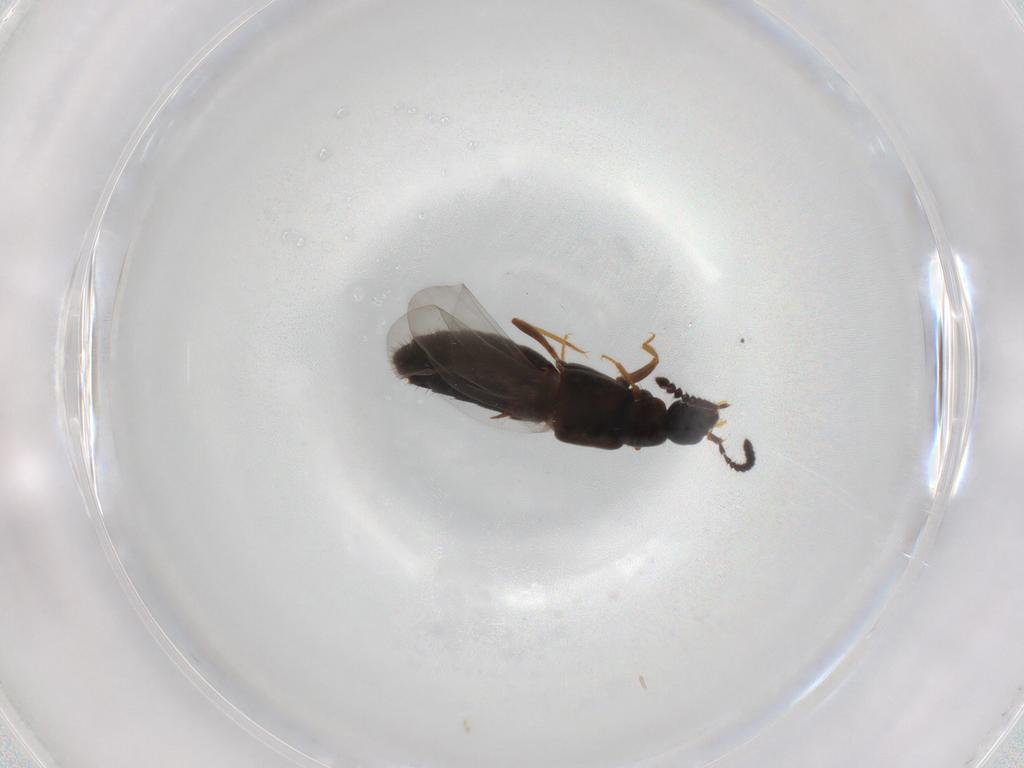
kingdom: Animalia
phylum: Arthropoda
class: Insecta
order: Coleoptera
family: Staphylinidae
